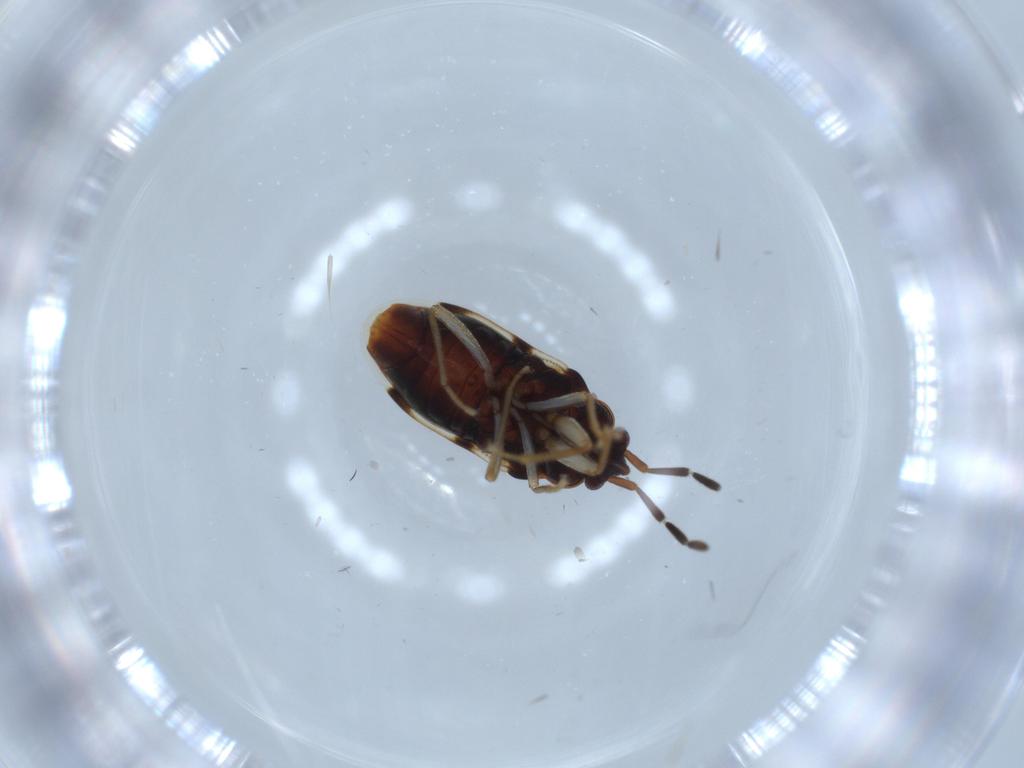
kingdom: Animalia
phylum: Arthropoda
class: Insecta
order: Hemiptera
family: Rhyparochromidae
